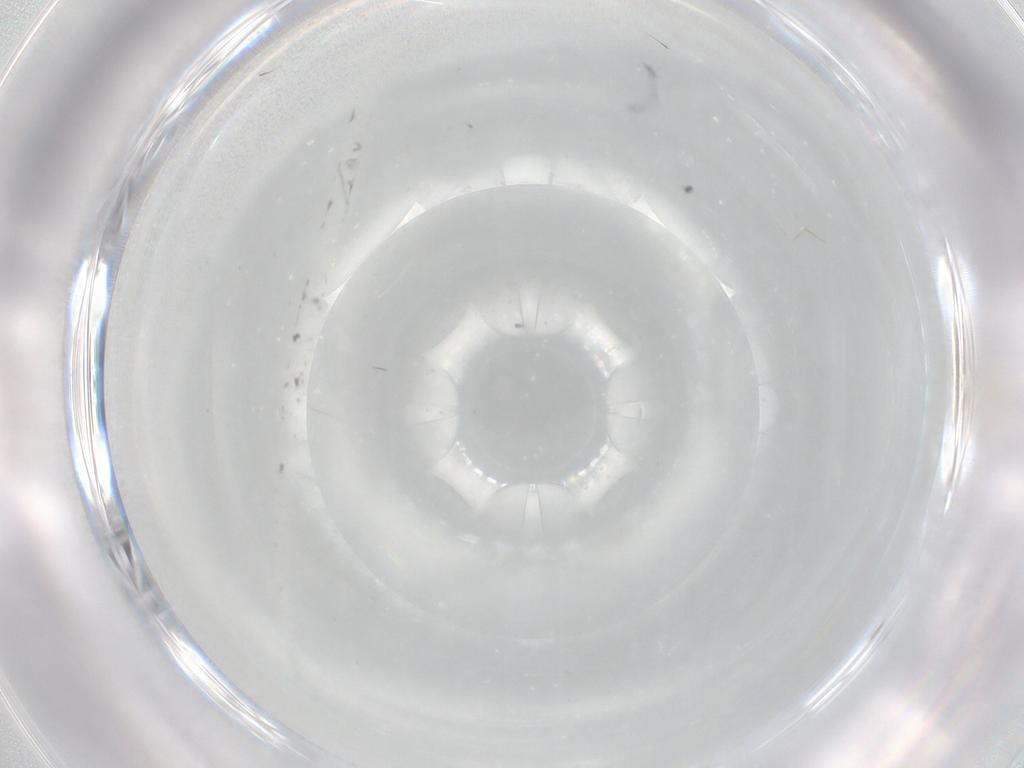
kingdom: Animalia
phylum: Arthropoda
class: Insecta
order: Diptera
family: Cecidomyiidae
